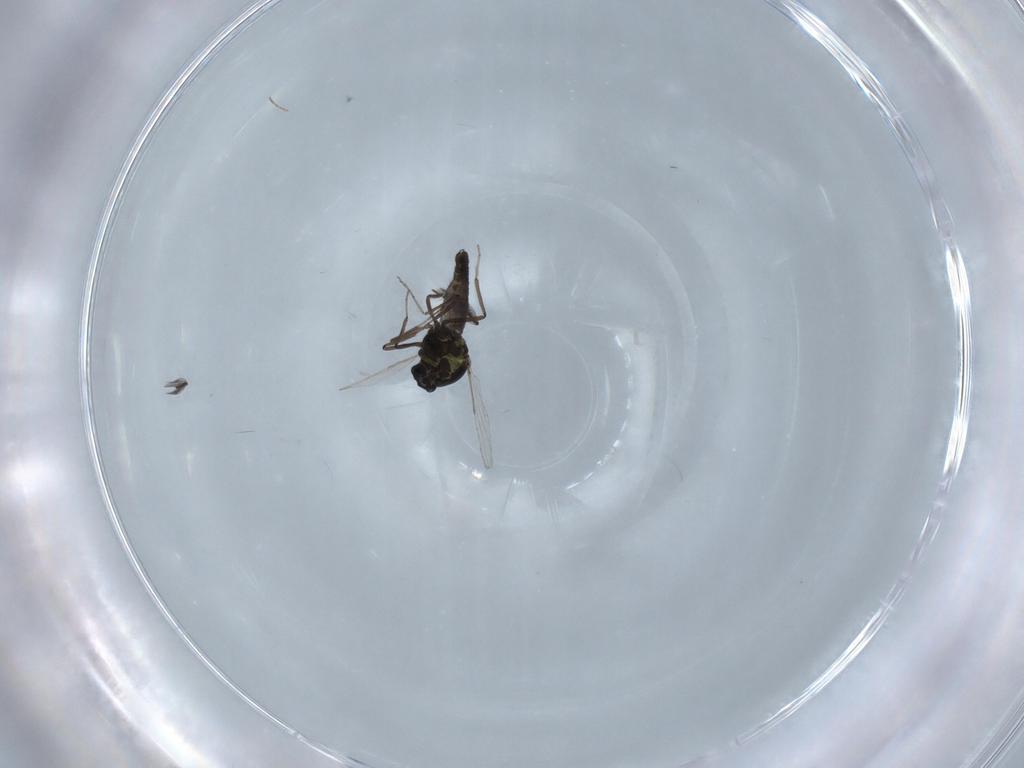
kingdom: Animalia
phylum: Arthropoda
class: Insecta
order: Diptera
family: Ceratopogonidae
